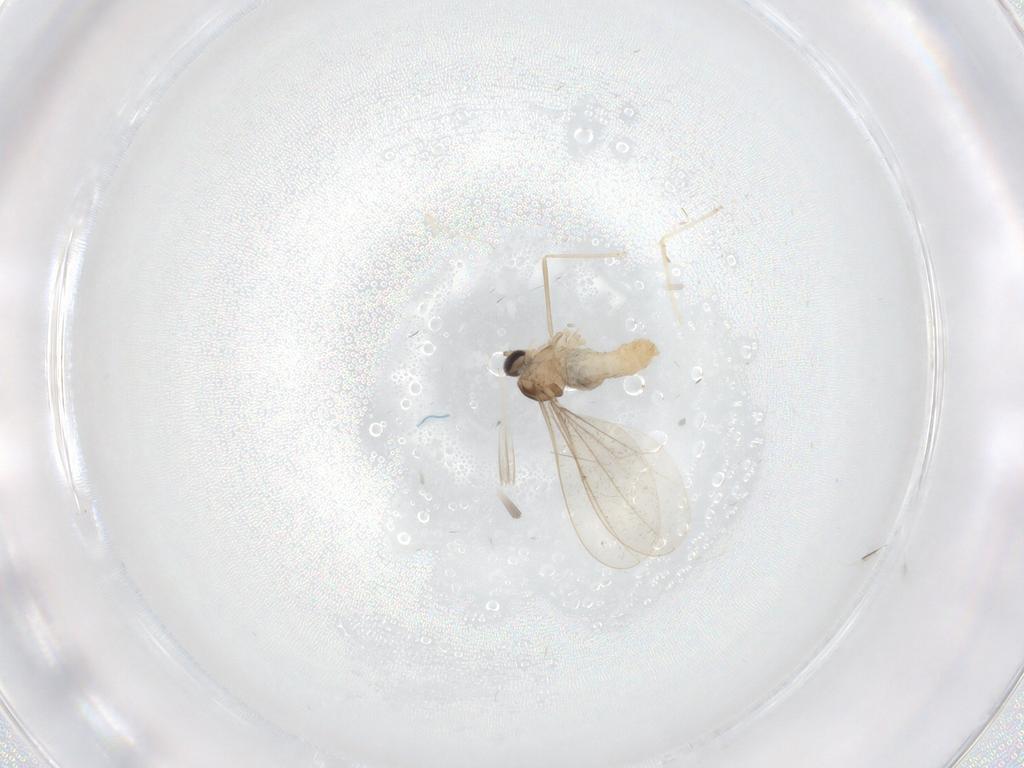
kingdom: Animalia
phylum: Arthropoda
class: Insecta
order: Diptera
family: Cecidomyiidae
